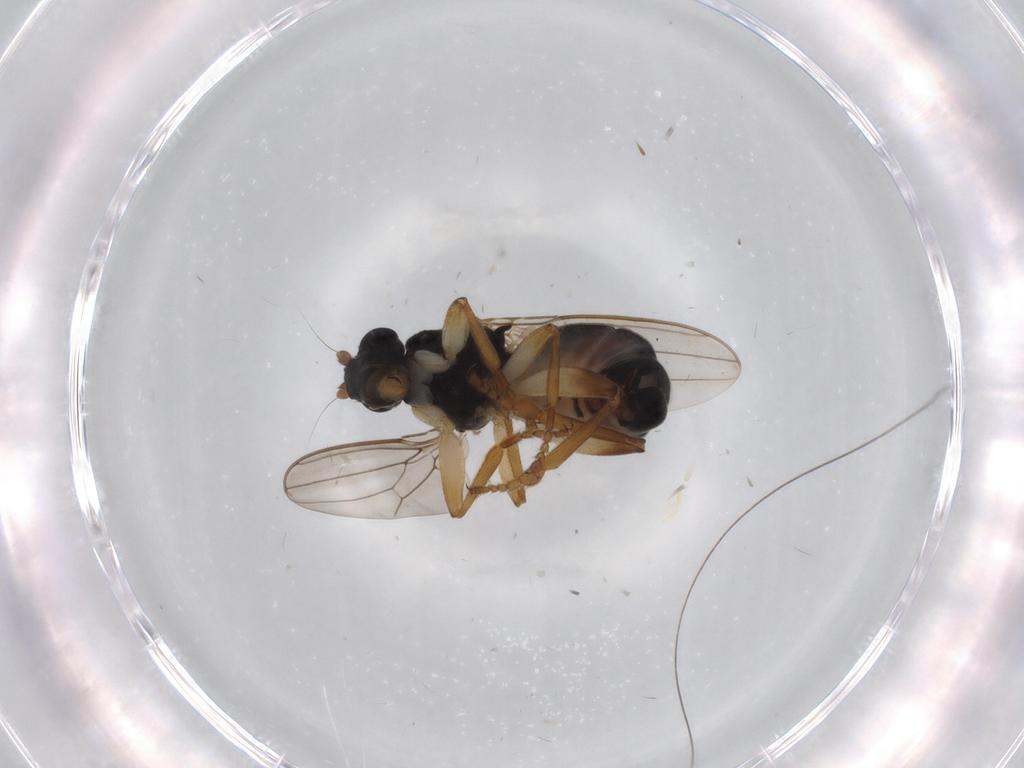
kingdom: Animalia
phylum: Arthropoda
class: Insecta
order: Diptera
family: Sphaeroceridae
